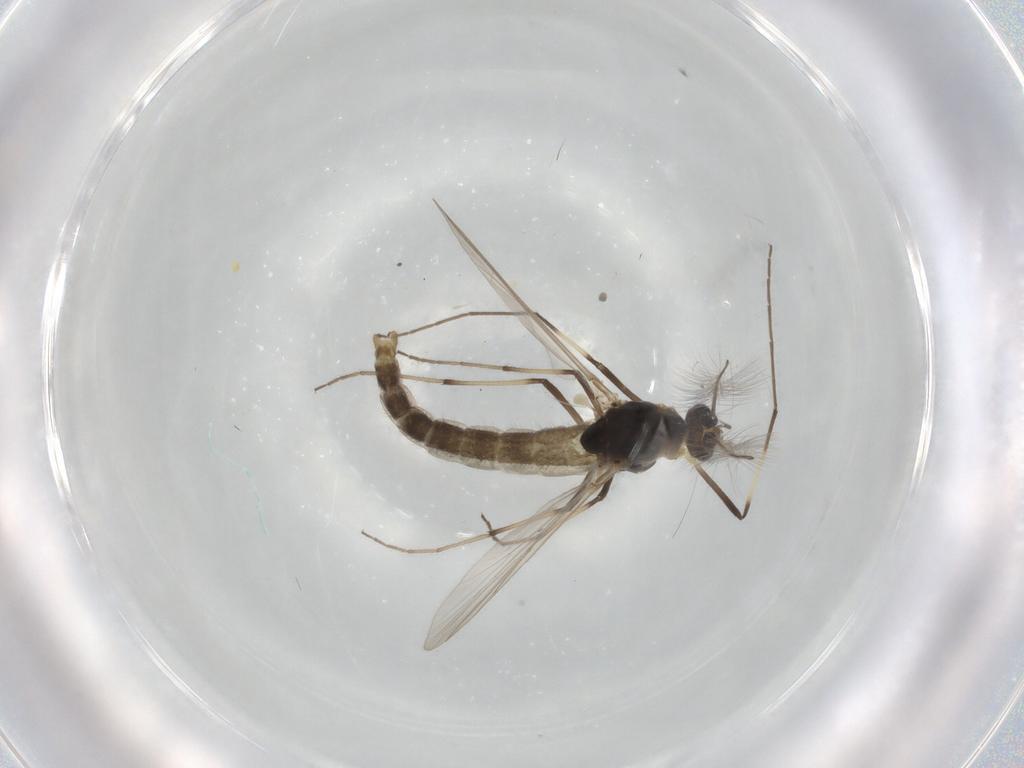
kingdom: Animalia
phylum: Arthropoda
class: Insecta
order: Diptera
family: Chironomidae
